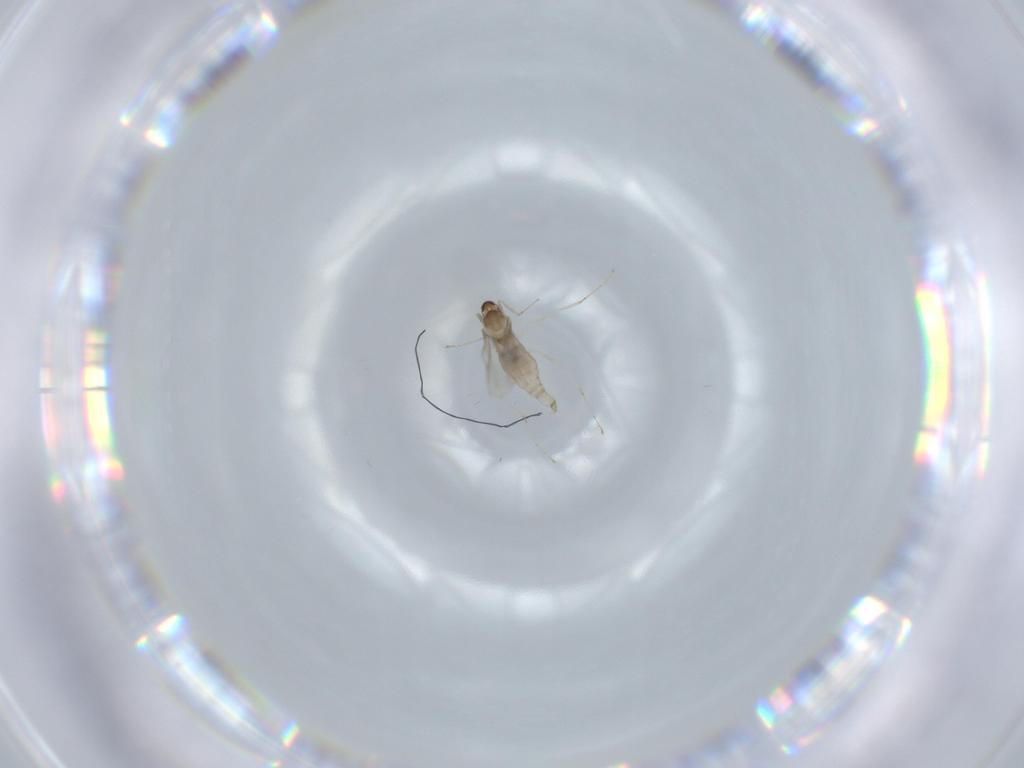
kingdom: Animalia
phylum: Arthropoda
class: Insecta
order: Diptera
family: Cecidomyiidae
